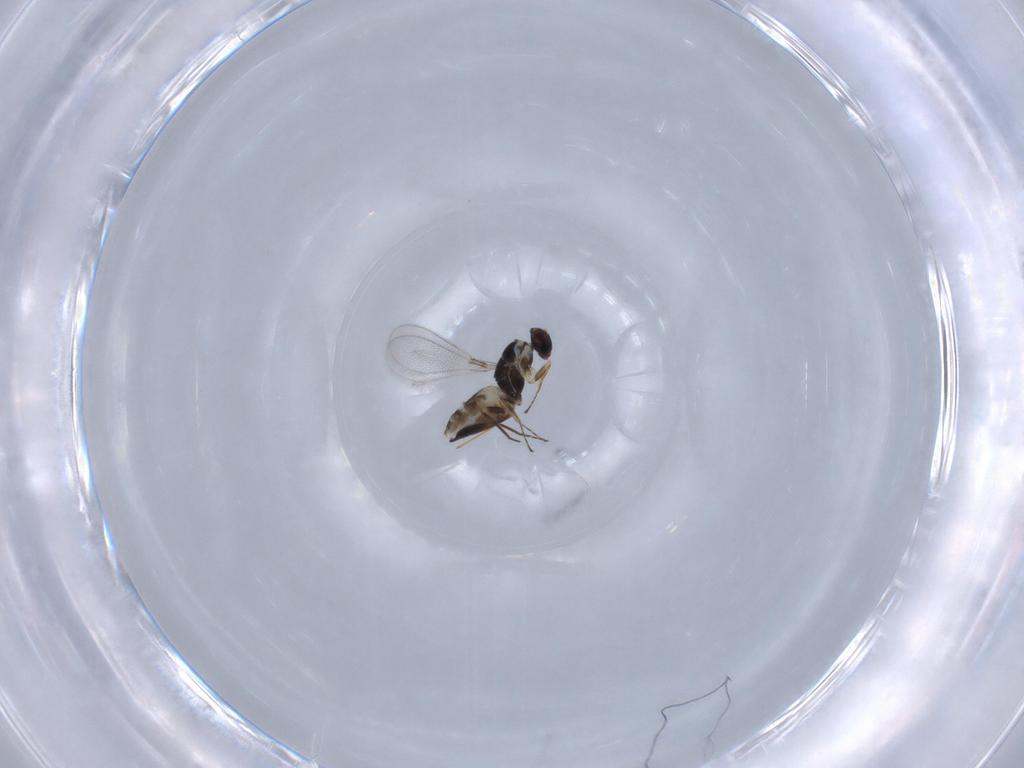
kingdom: Animalia
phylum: Arthropoda
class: Insecta
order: Hymenoptera
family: Mymaridae
